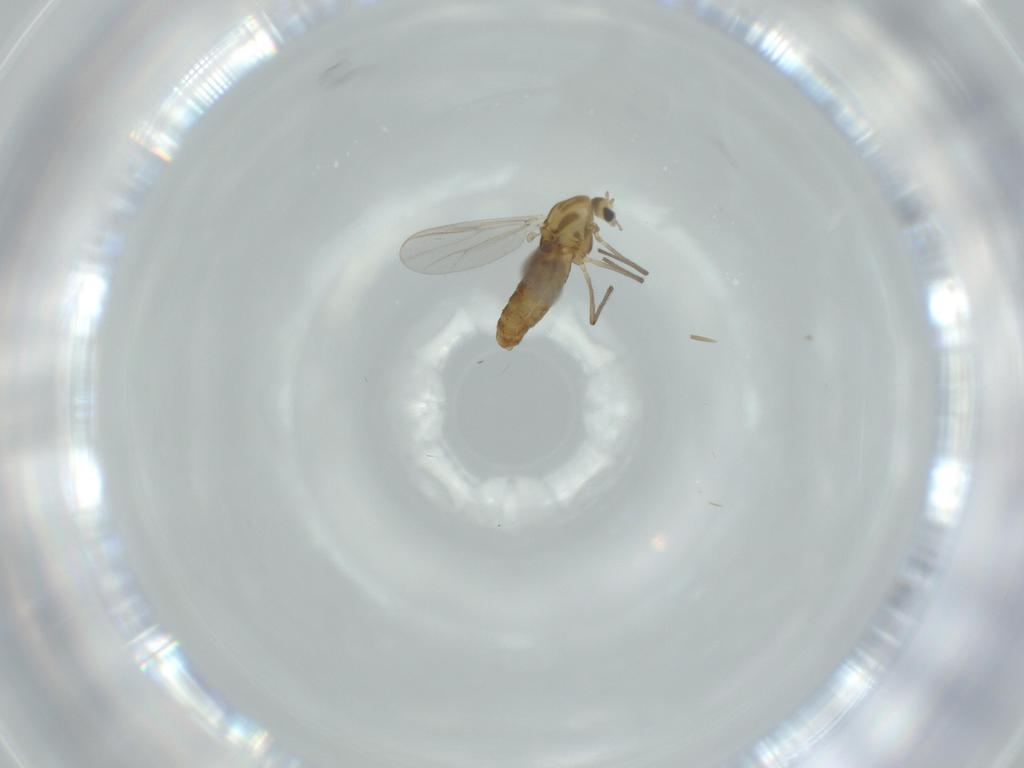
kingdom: Animalia
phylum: Arthropoda
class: Insecta
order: Diptera
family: Chironomidae
